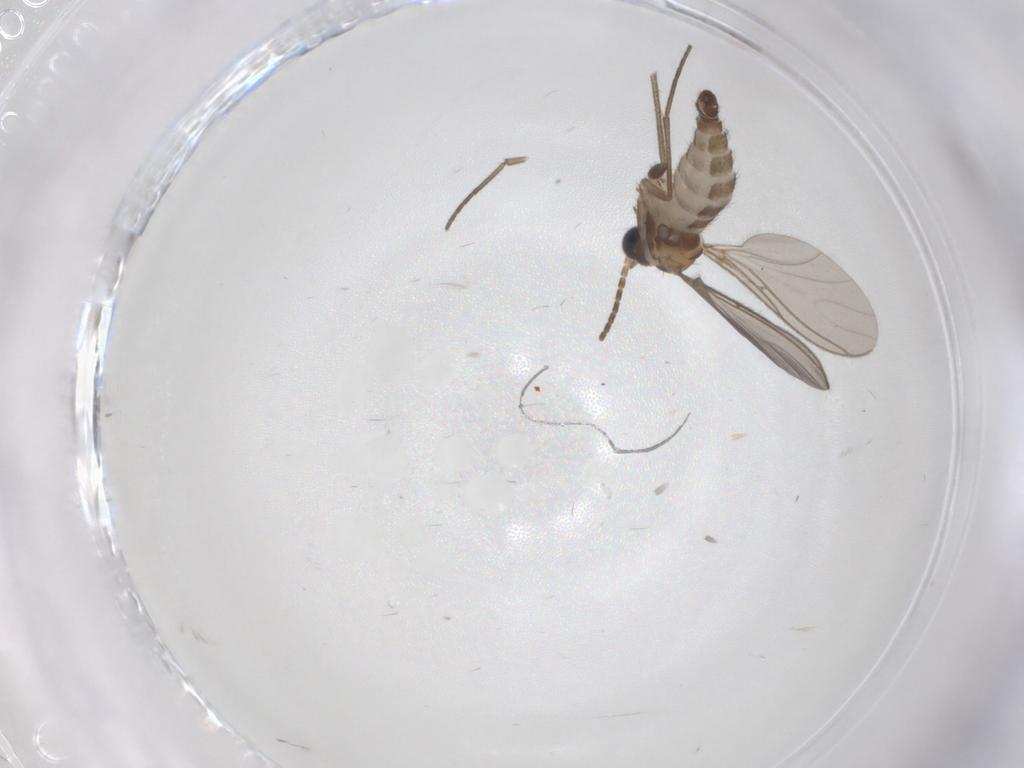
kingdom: Animalia
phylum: Arthropoda
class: Insecta
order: Diptera
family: Sciaridae
